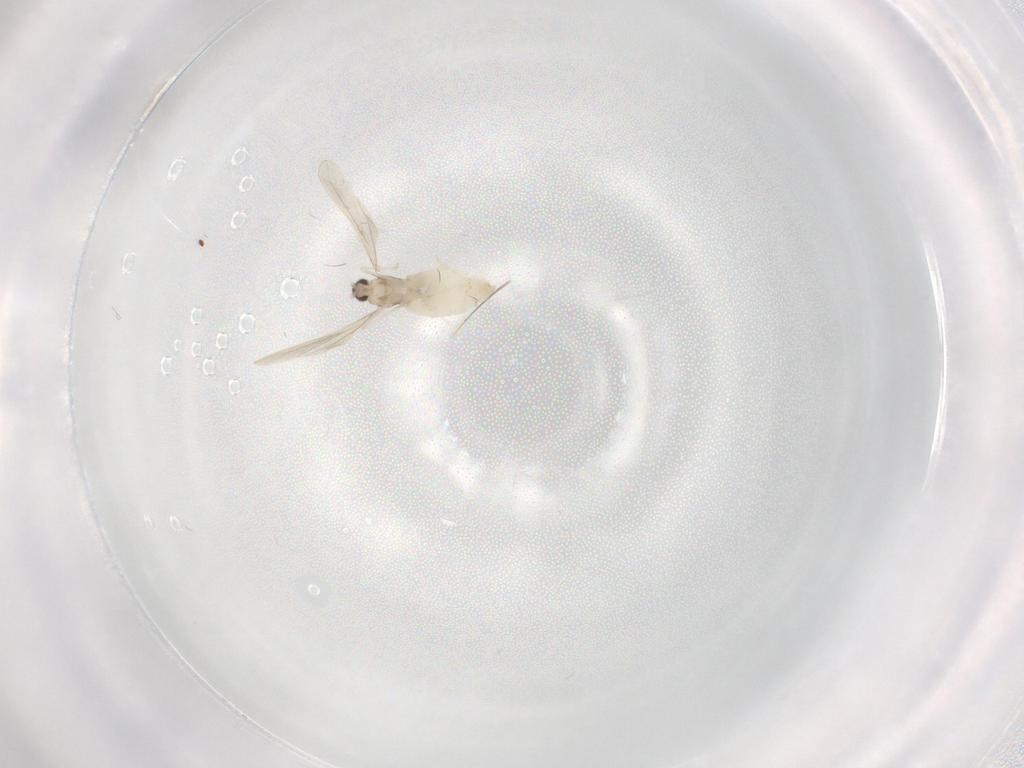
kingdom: Animalia
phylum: Arthropoda
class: Insecta
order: Diptera
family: Cecidomyiidae
